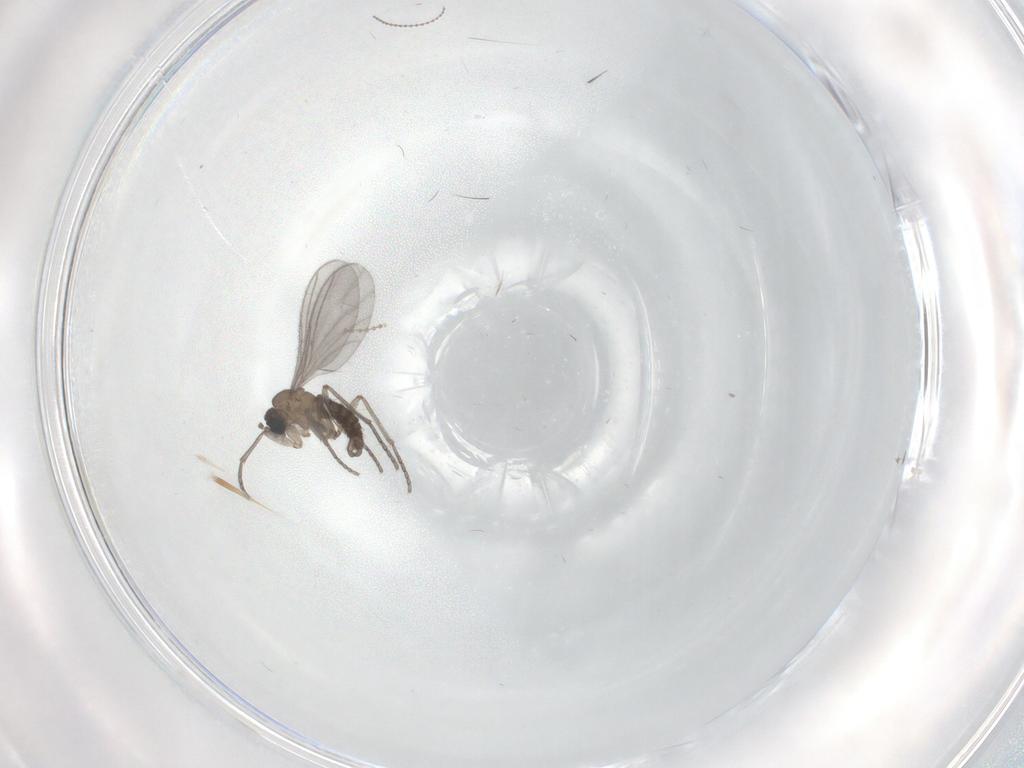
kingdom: Animalia
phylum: Arthropoda
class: Insecta
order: Diptera
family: Sciaridae
